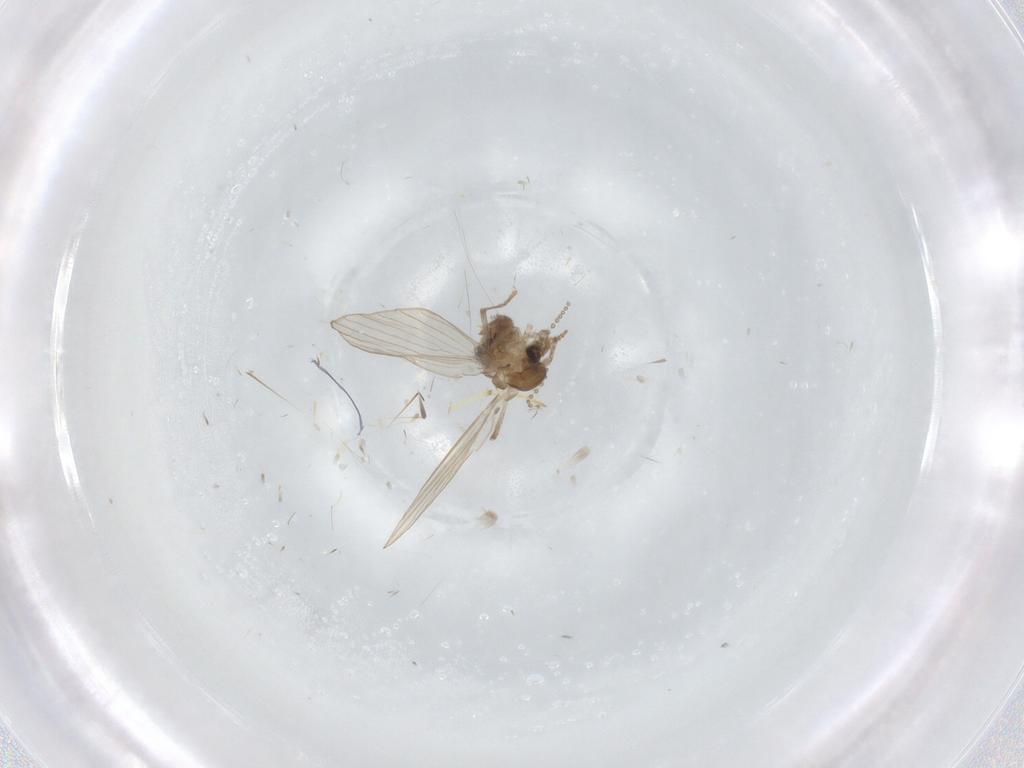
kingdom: Animalia
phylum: Arthropoda
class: Insecta
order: Diptera
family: Psychodidae
